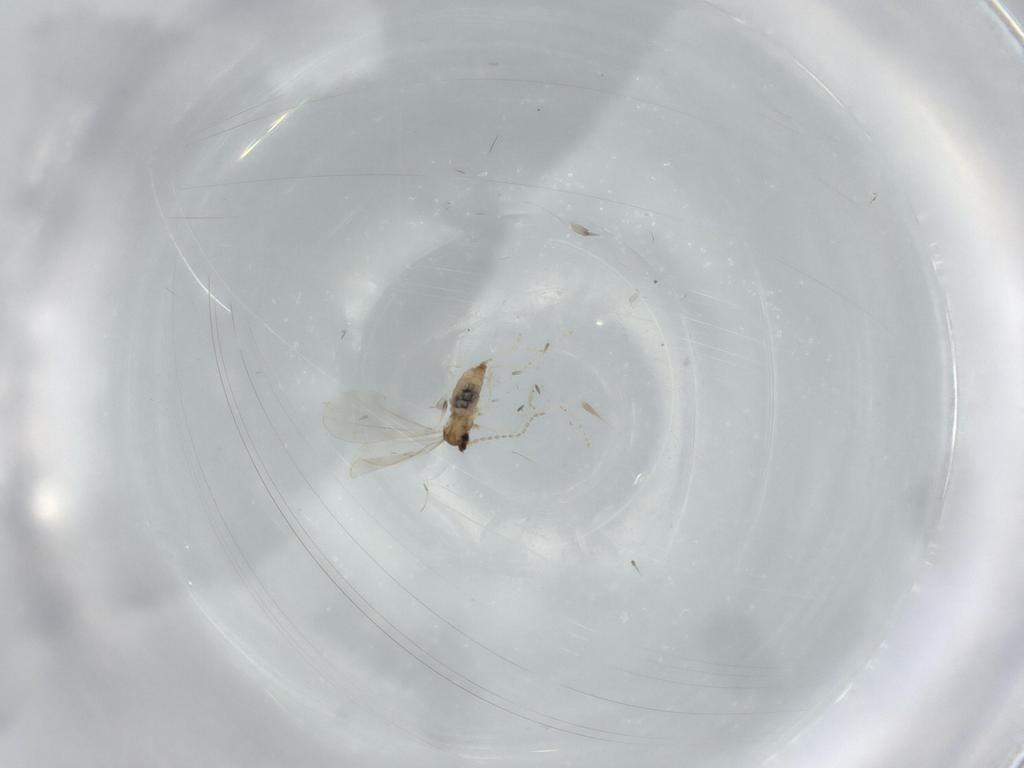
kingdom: Animalia
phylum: Arthropoda
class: Insecta
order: Diptera
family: Cecidomyiidae
